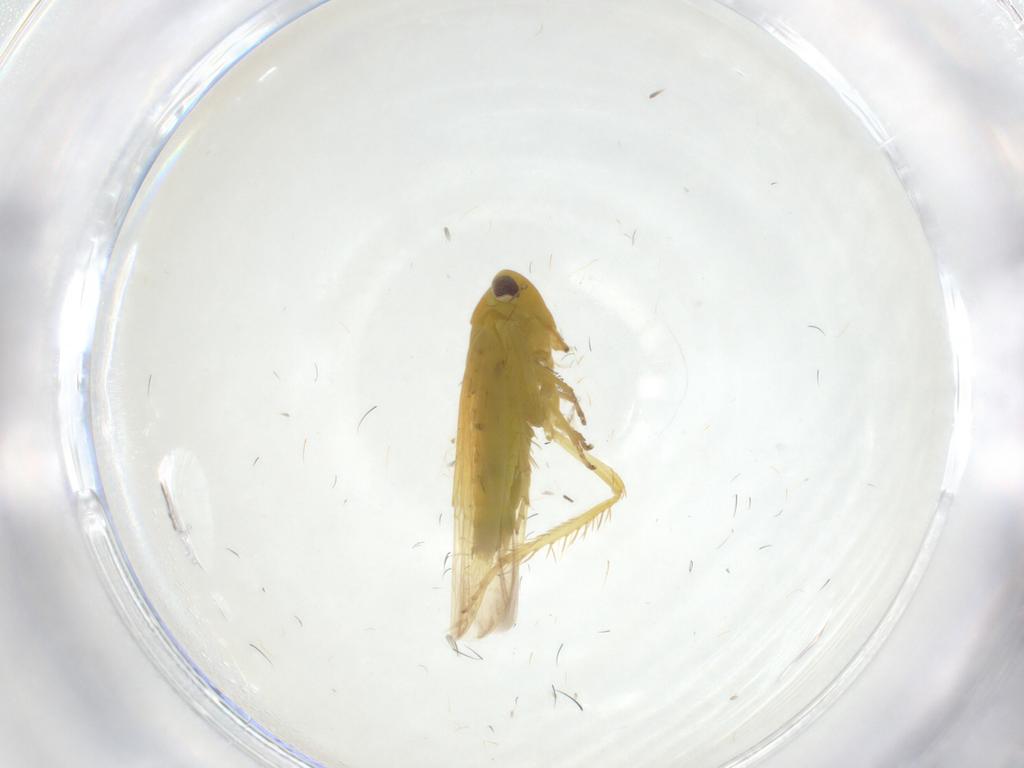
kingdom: Animalia
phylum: Arthropoda
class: Insecta
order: Hemiptera
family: Cicadellidae
